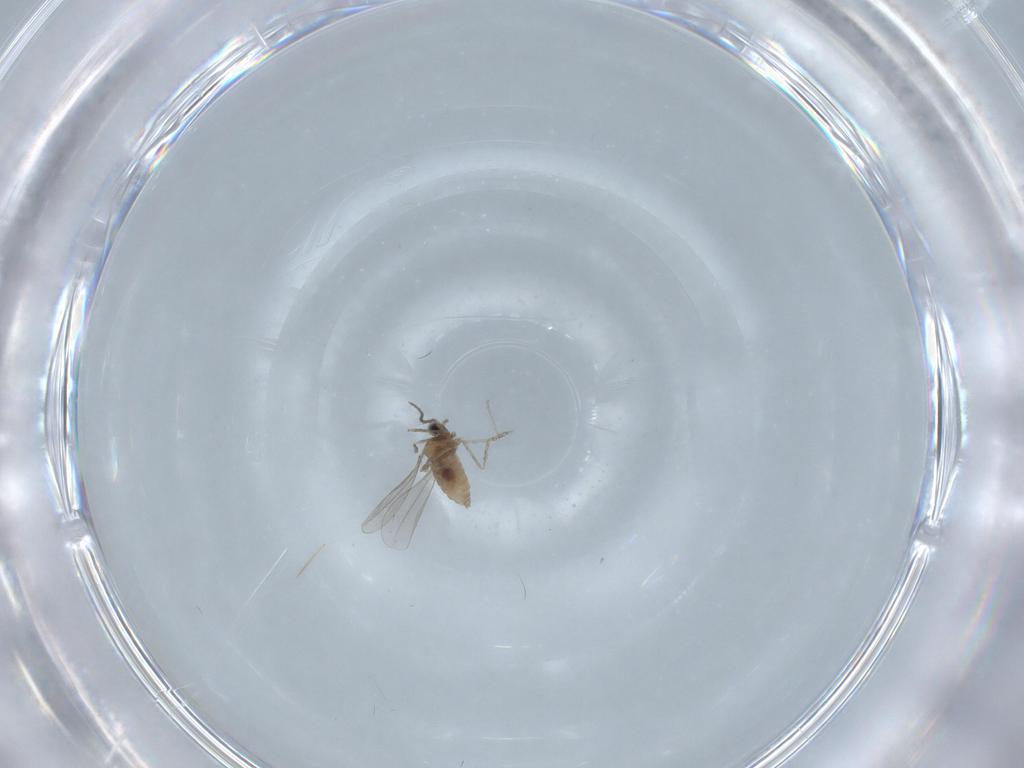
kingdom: Animalia
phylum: Arthropoda
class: Insecta
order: Diptera
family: Cecidomyiidae
